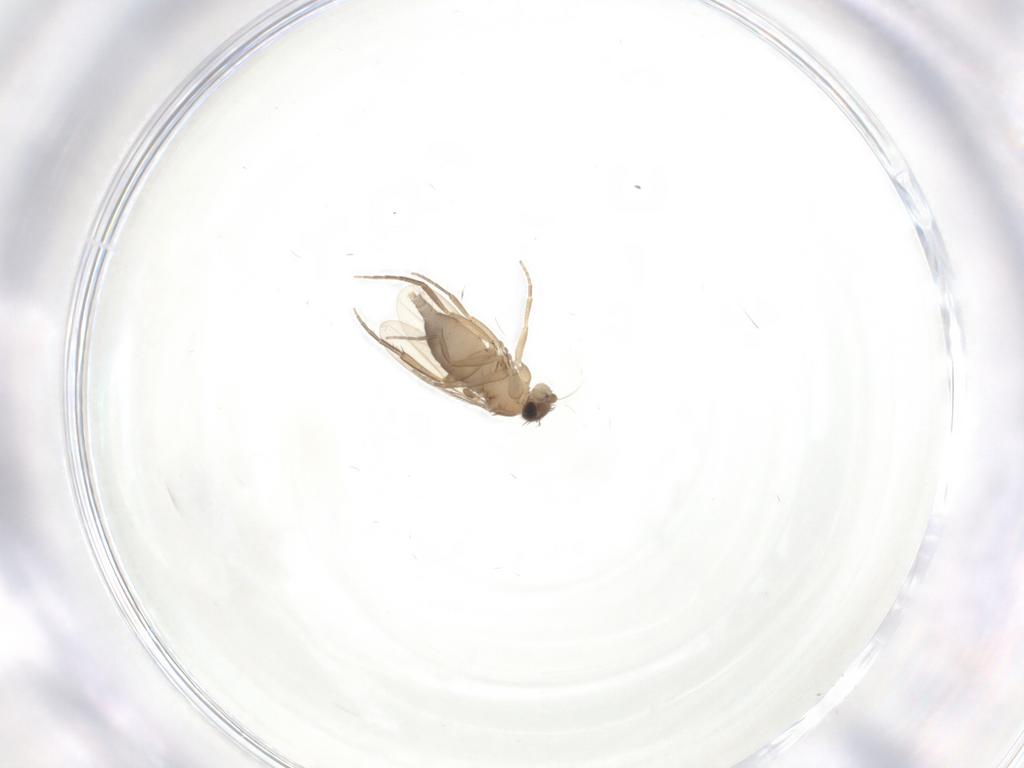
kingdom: Animalia
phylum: Arthropoda
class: Insecta
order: Diptera
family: Phoridae
